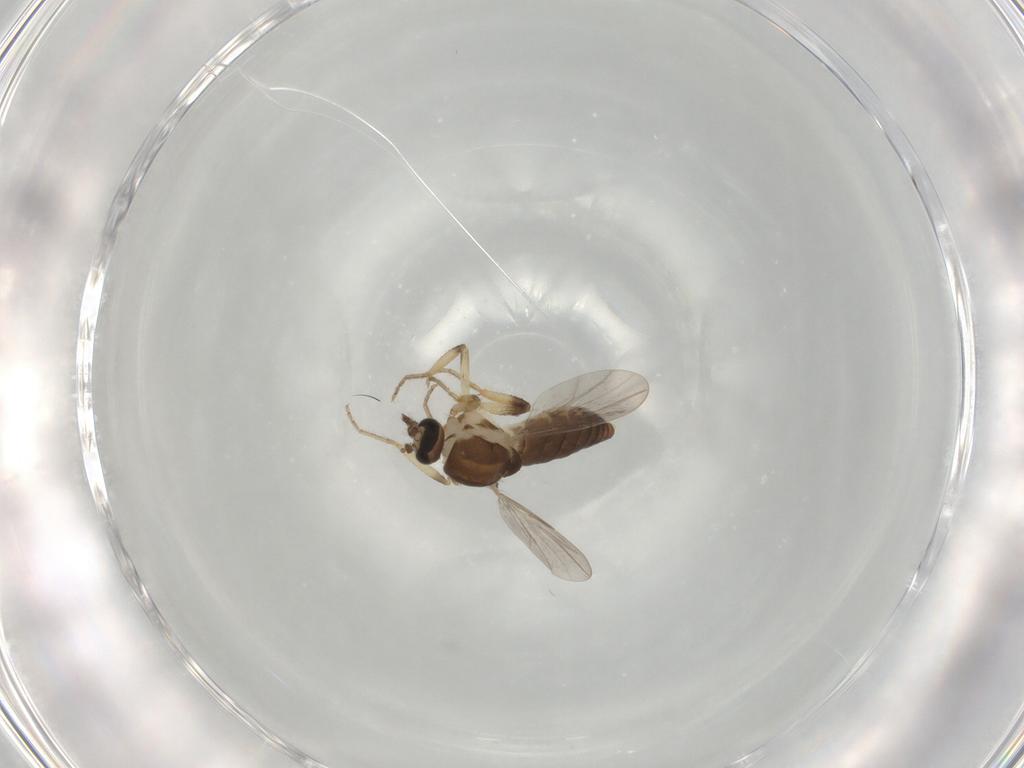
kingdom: Animalia
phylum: Arthropoda
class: Insecta
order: Diptera
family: Ceratopogonidae
